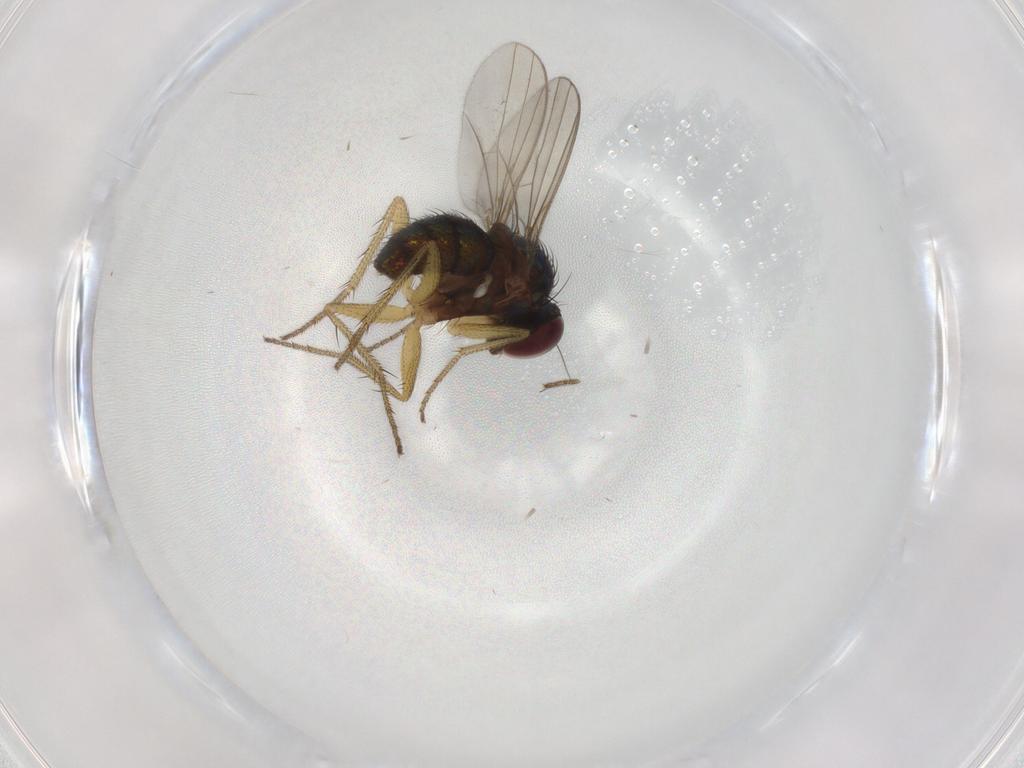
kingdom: Animalia
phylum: Arthropoda
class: Insecta
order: Diptera
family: Dolichopodidae
